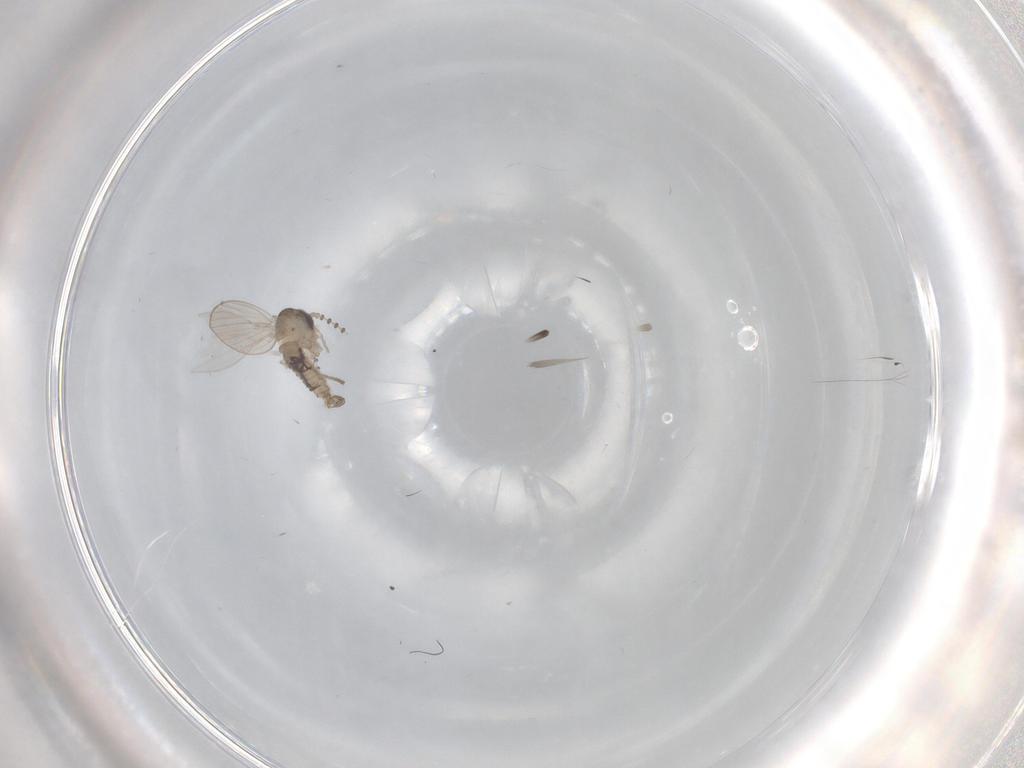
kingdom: Animalia
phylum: Arthropoda
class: Insecta
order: Diptera
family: Psychodidae
